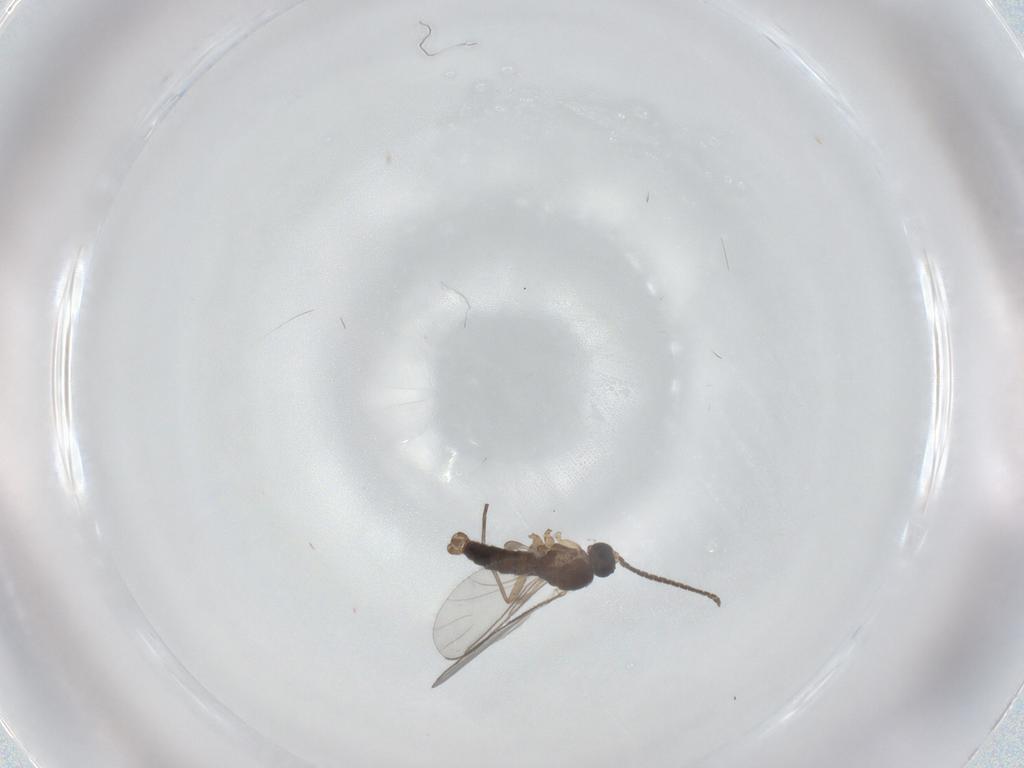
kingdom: Animalia
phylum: Arthropoda
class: Insecta
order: Diptera
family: Sciaridae
